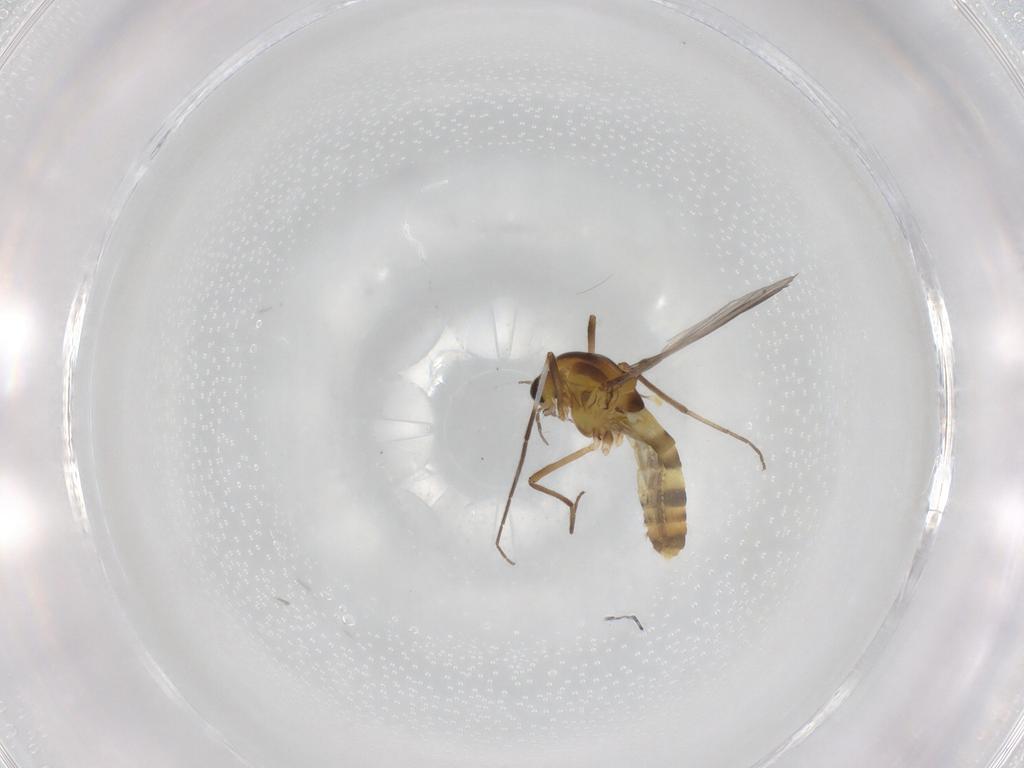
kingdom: Animalia
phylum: Arthropoda
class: Insecta
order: Diptera
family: Chironomidae
